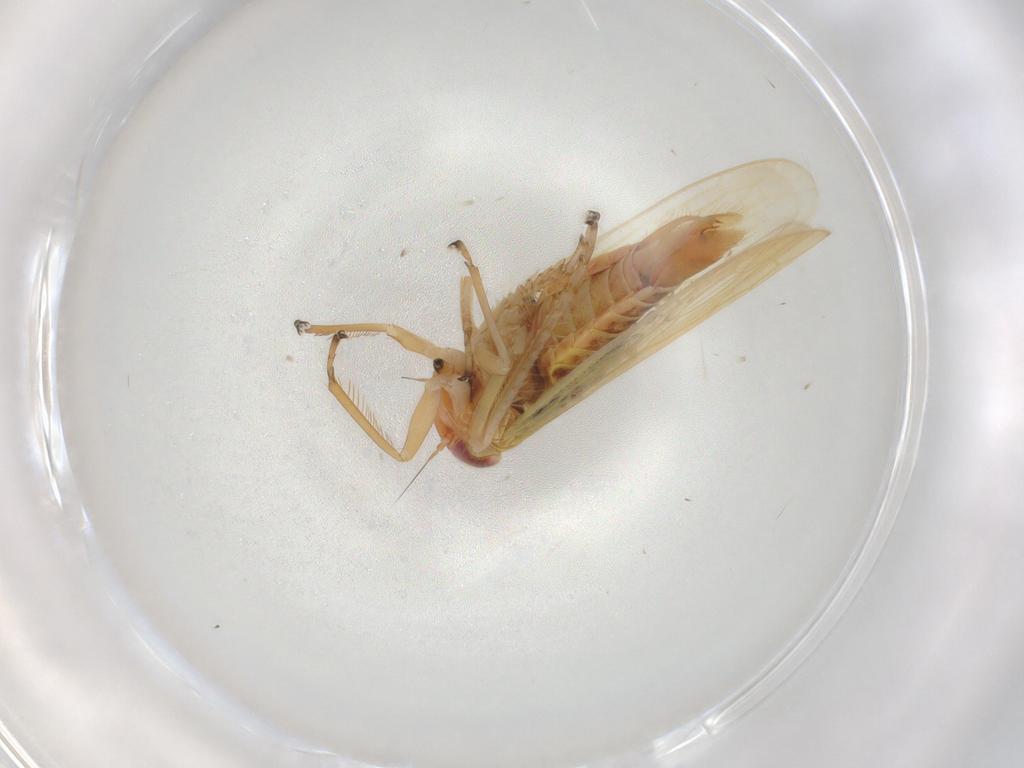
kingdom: Animalia
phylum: Arthropoda
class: Insecta
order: Hemiptera
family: Cicadellidae
